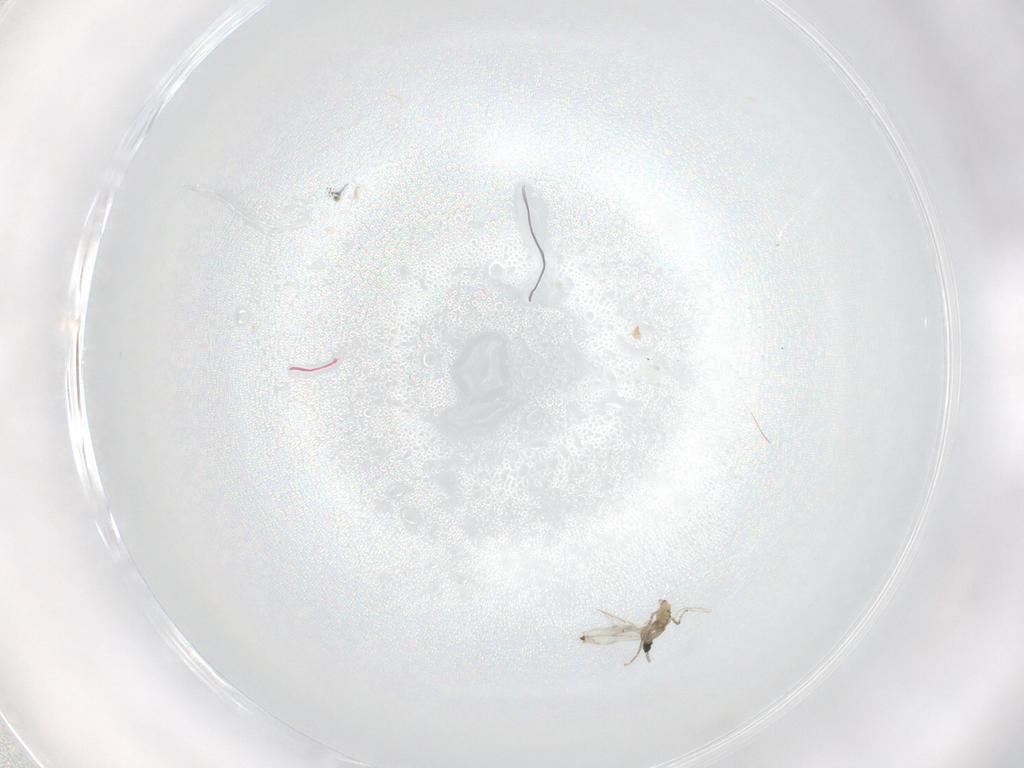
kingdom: Animalia
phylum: Arthropoda
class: Insecta
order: Diptera
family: Cecidomyiidae
